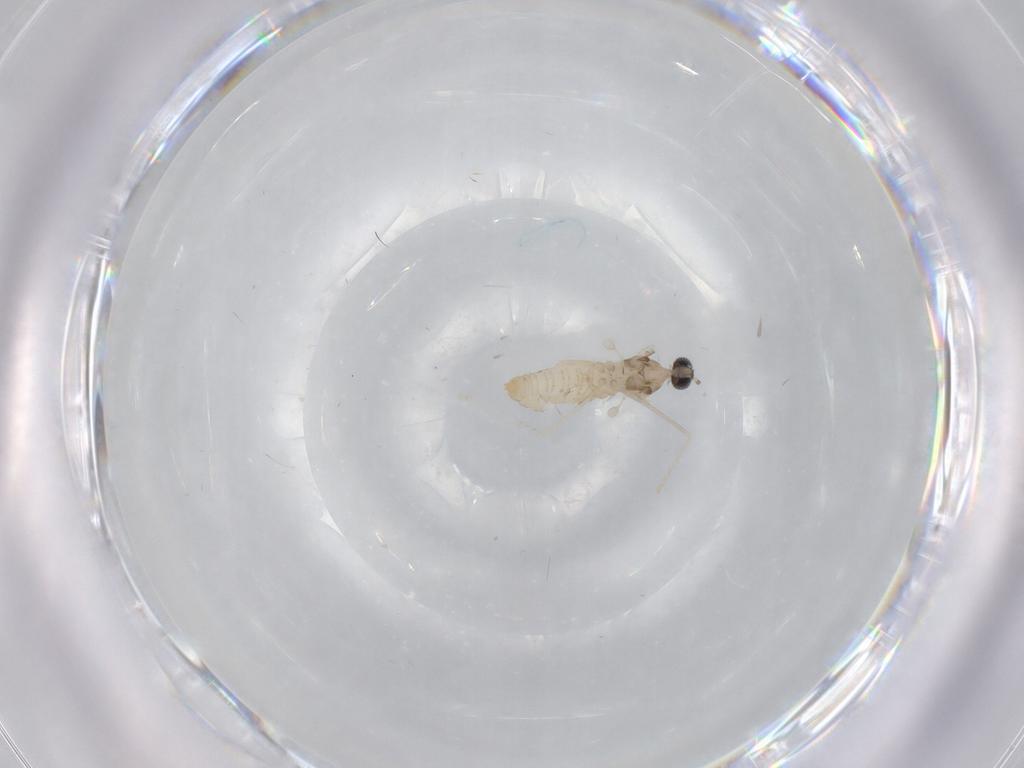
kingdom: Animalia
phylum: Arthropoda
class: Insecta
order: Diptera
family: Cecidomyiidae
